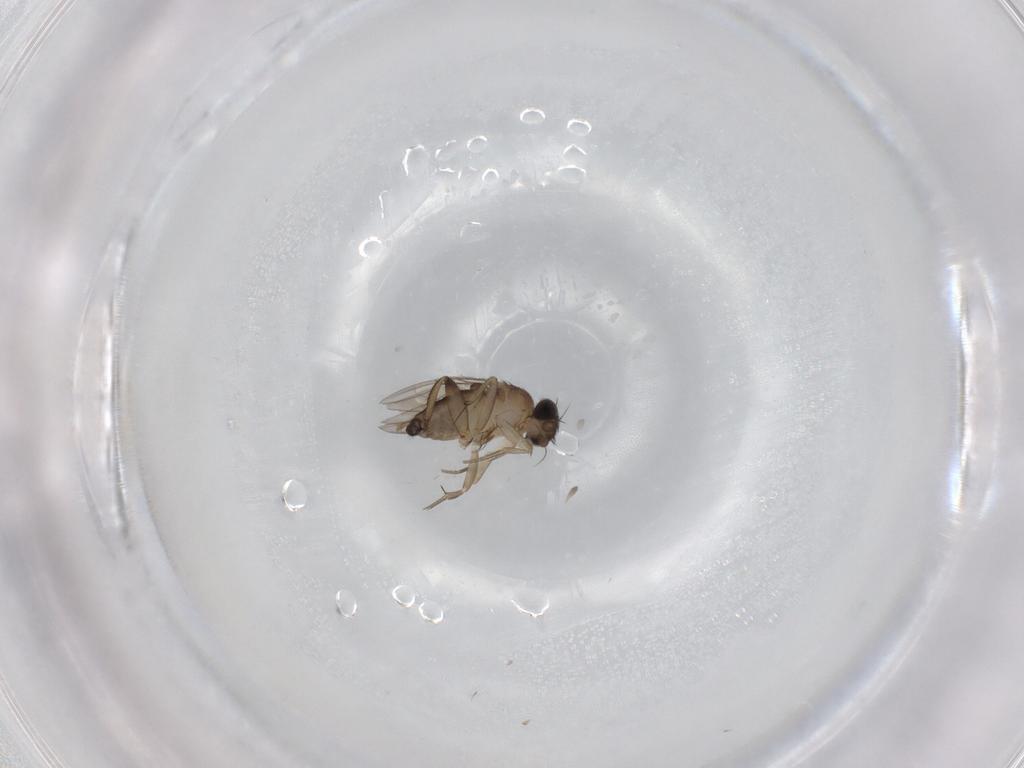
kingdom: Animalia
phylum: Arthropoda
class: Insecta
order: Diptera
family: Phoridae
